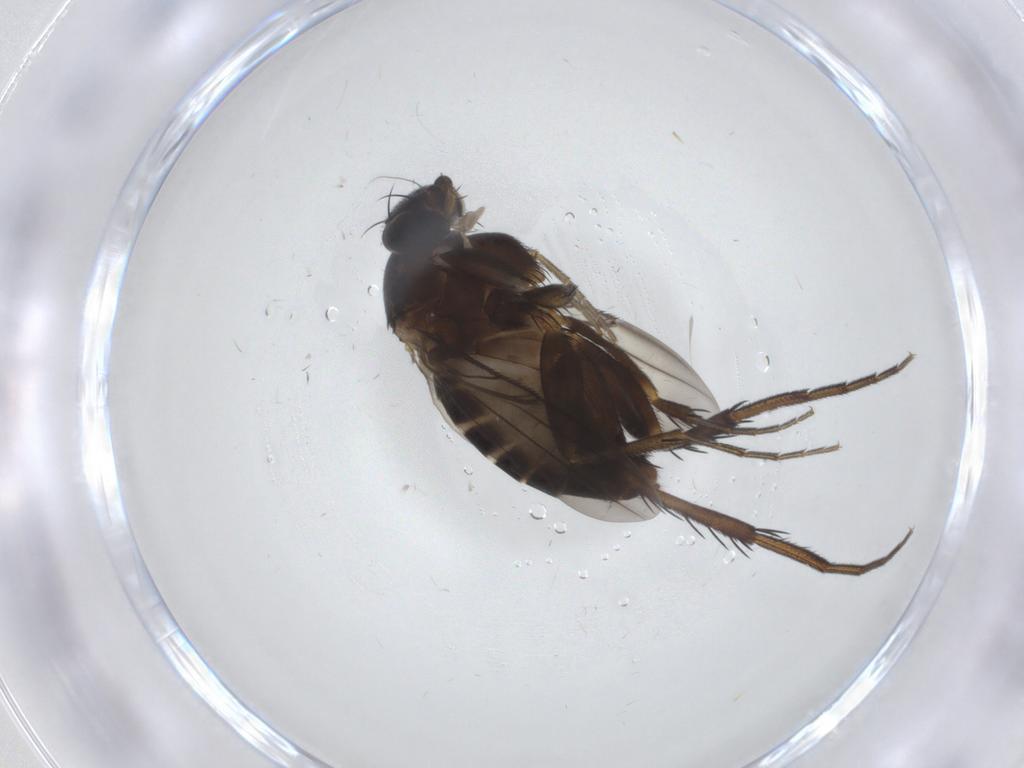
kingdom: Animalia
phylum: Arthropoda
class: Insecta
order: Diptera
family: Phoridae
